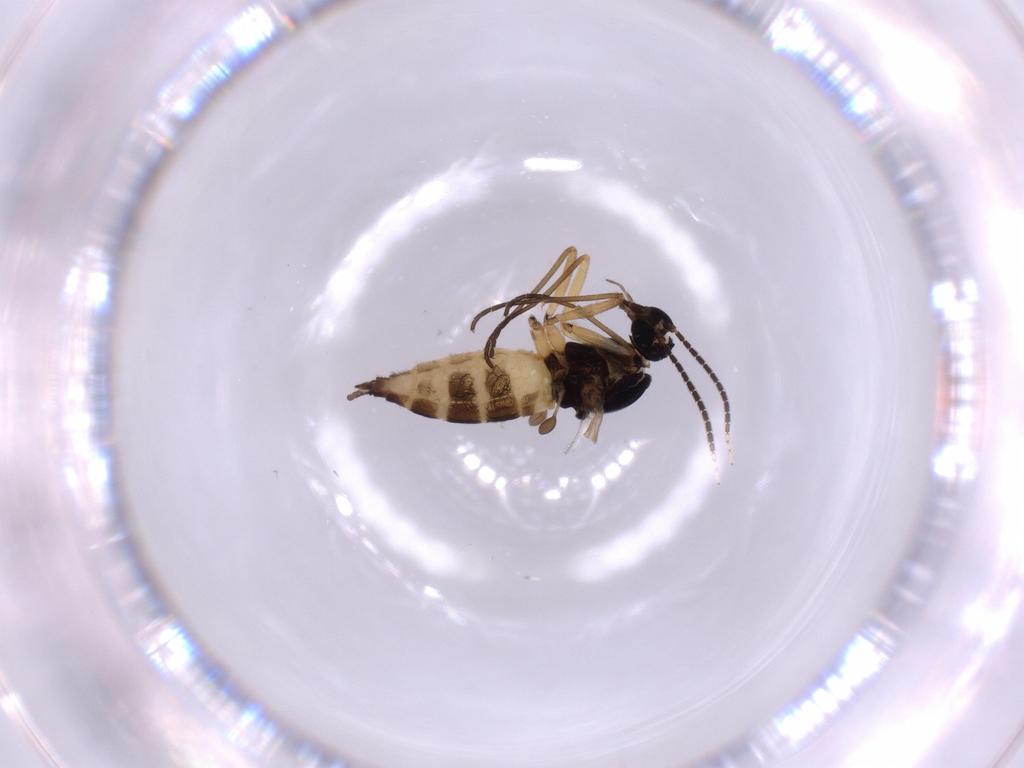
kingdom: Animalia
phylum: Arthropoda
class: Insecta
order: Diptera
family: Sciaridae
